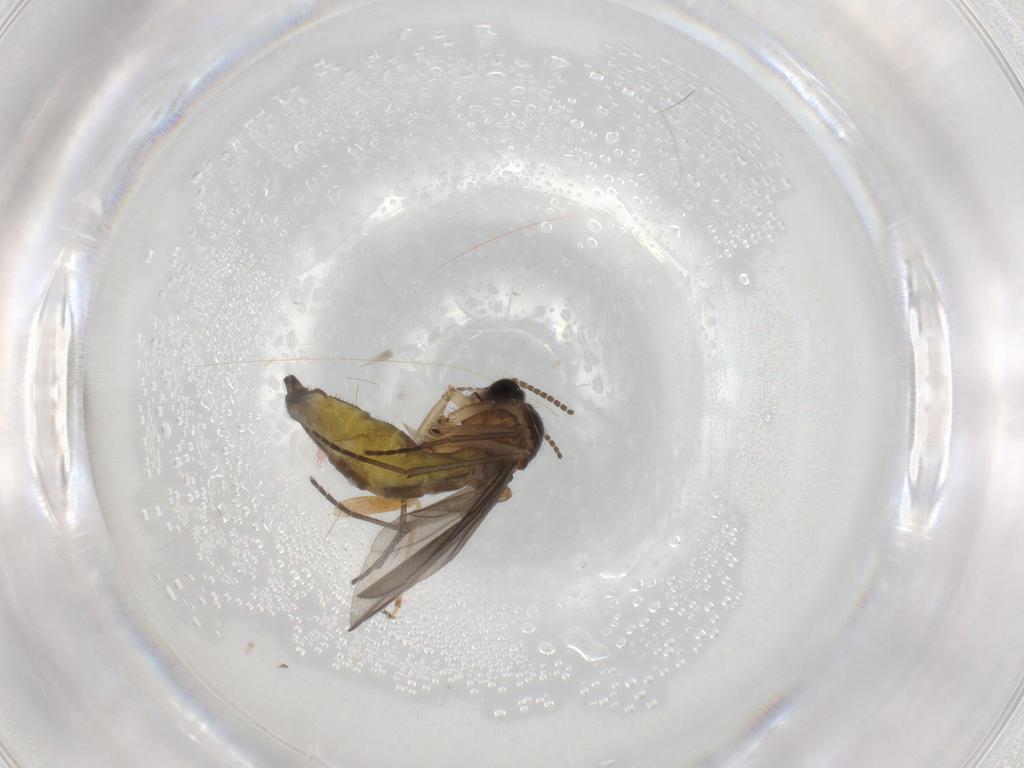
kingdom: Animalia
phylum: Arthropoda
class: Insecta
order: Diptera
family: Sciaridae
